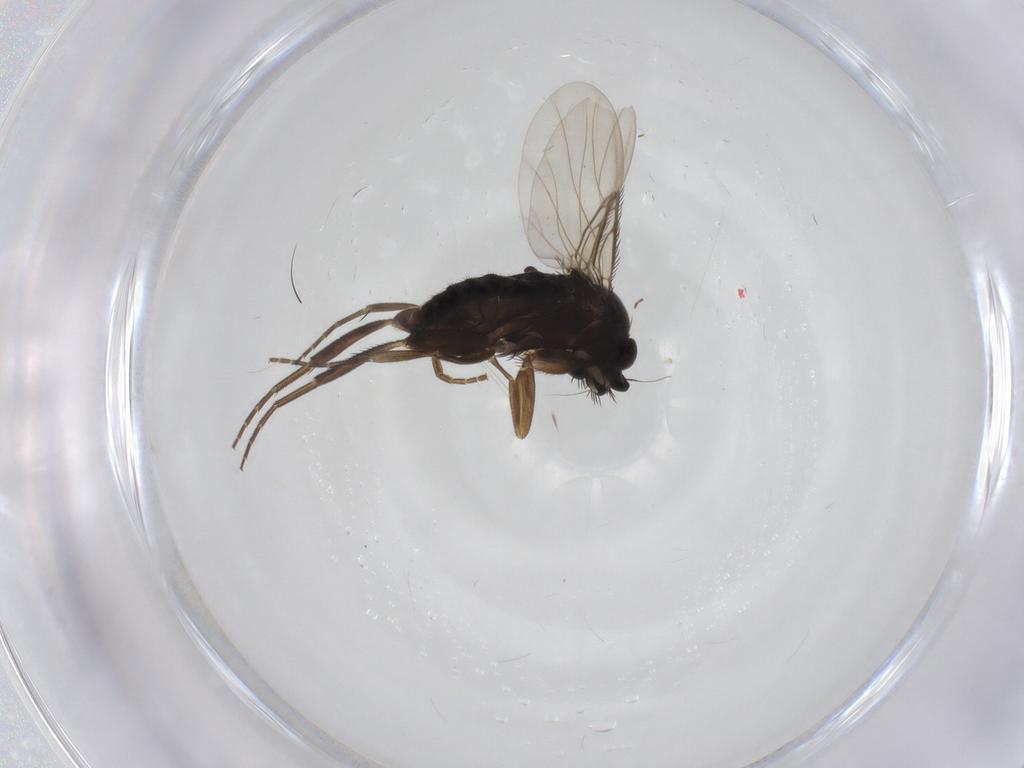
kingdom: Animalia
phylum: Arthropoda
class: Insecta
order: Diptera
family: Phoridae
